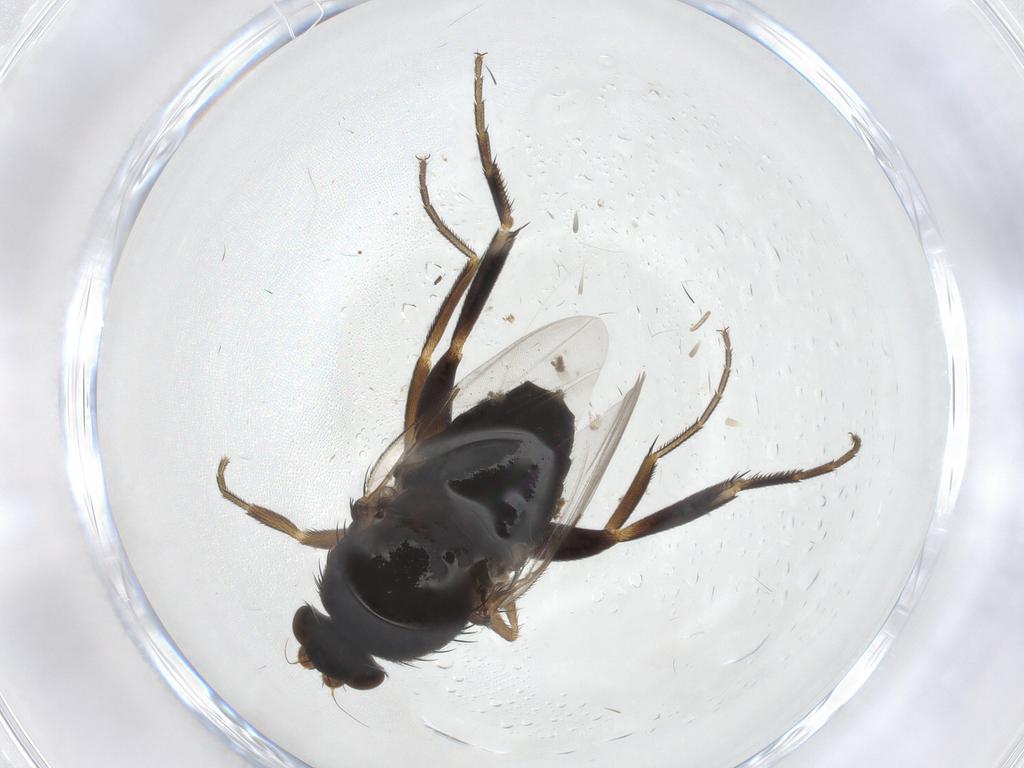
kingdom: Animalia
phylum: Arthropoda
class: Insecta
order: Diptera
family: Phoridae
